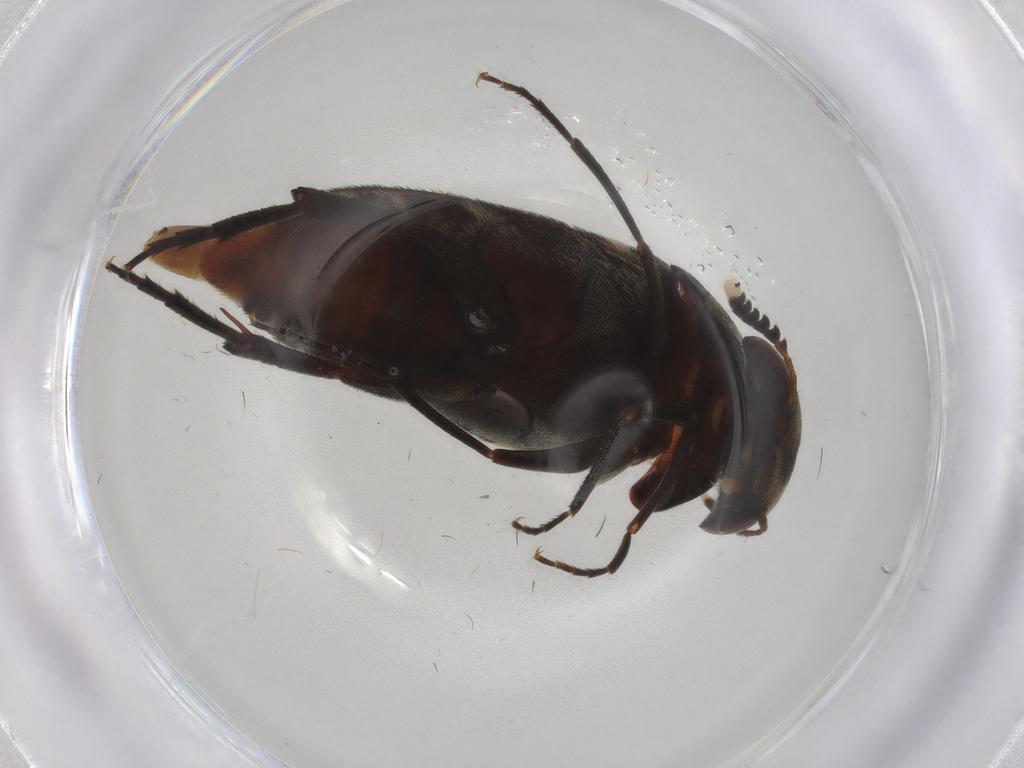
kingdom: Animalia
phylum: Arthropoda
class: Insecta
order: Coleoptera
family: Mordellidae
